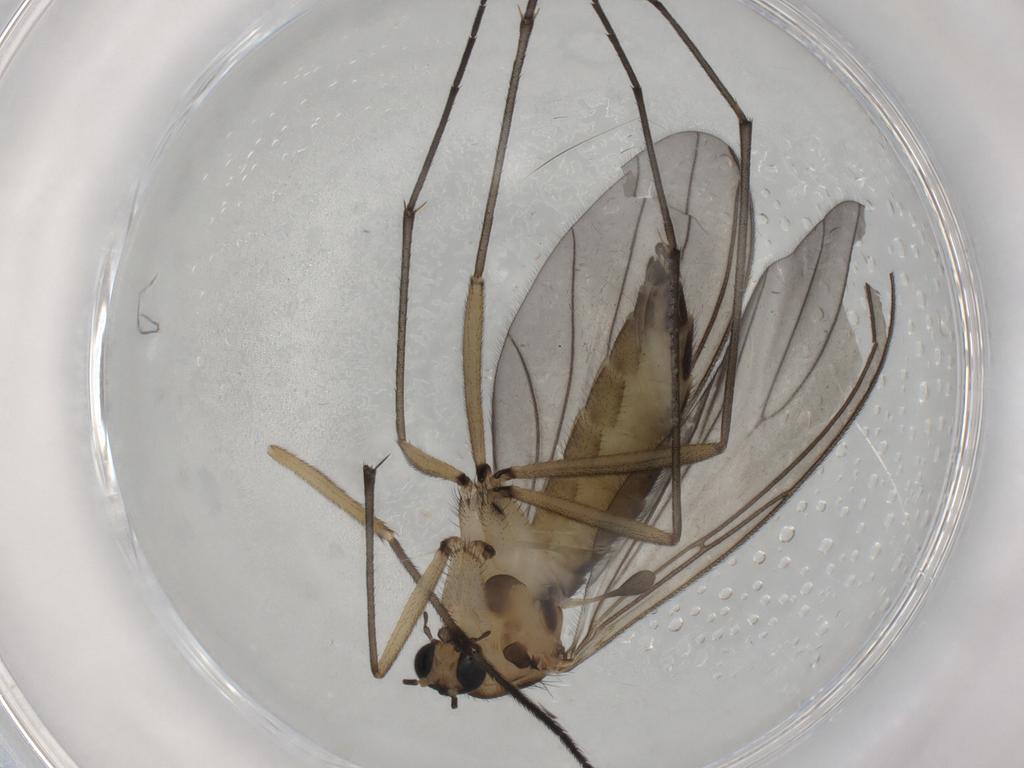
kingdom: Animalia
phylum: Arthropoda
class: Insecta
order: Diptera
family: Sciaridae
